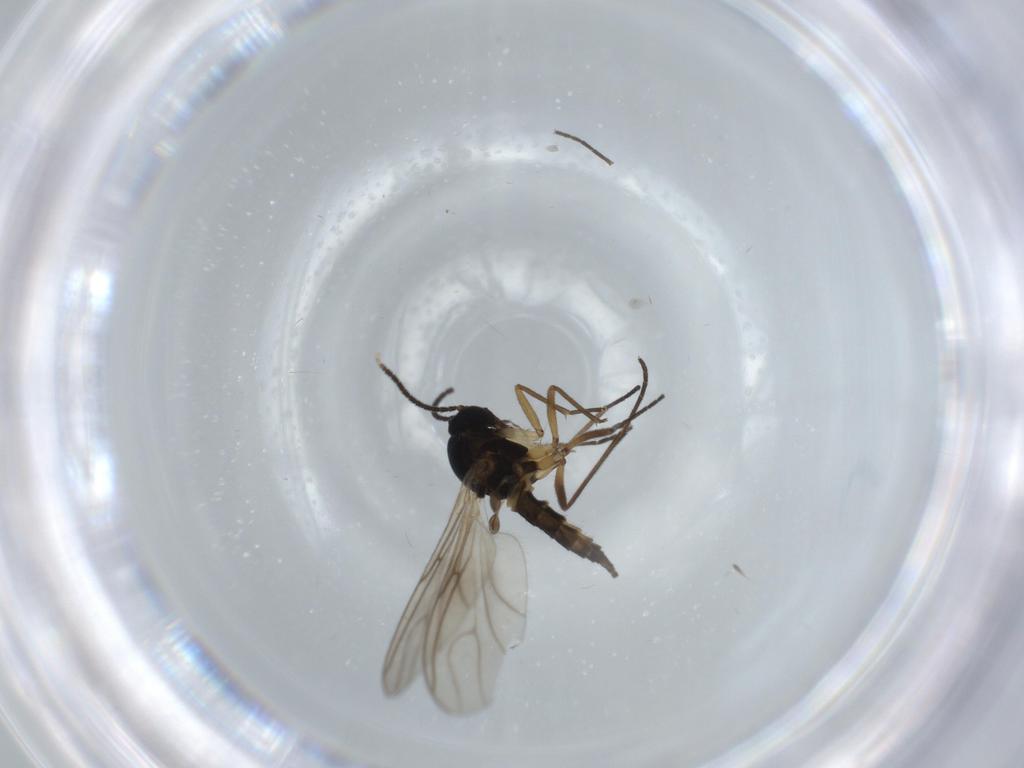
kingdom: Animalia
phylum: Arthropoda
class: Insecta
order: Diptera
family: Sciaridae
